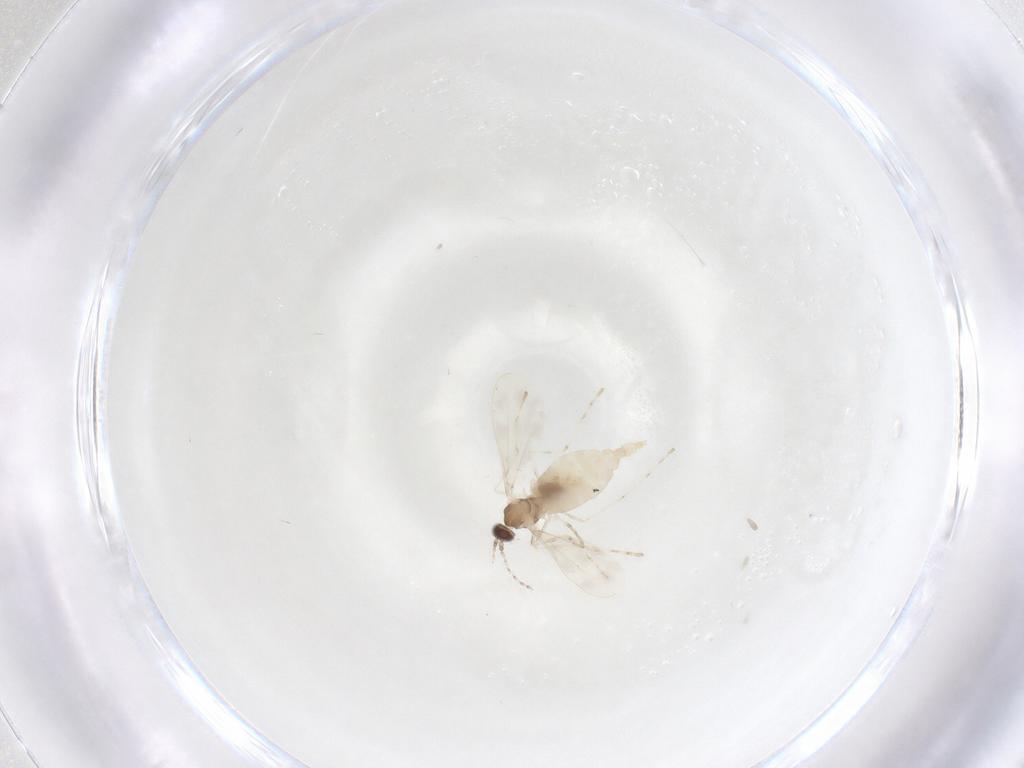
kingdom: Animalia
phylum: Arthropoda
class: Insecta
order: Diptera
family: Cecidomyiidae
